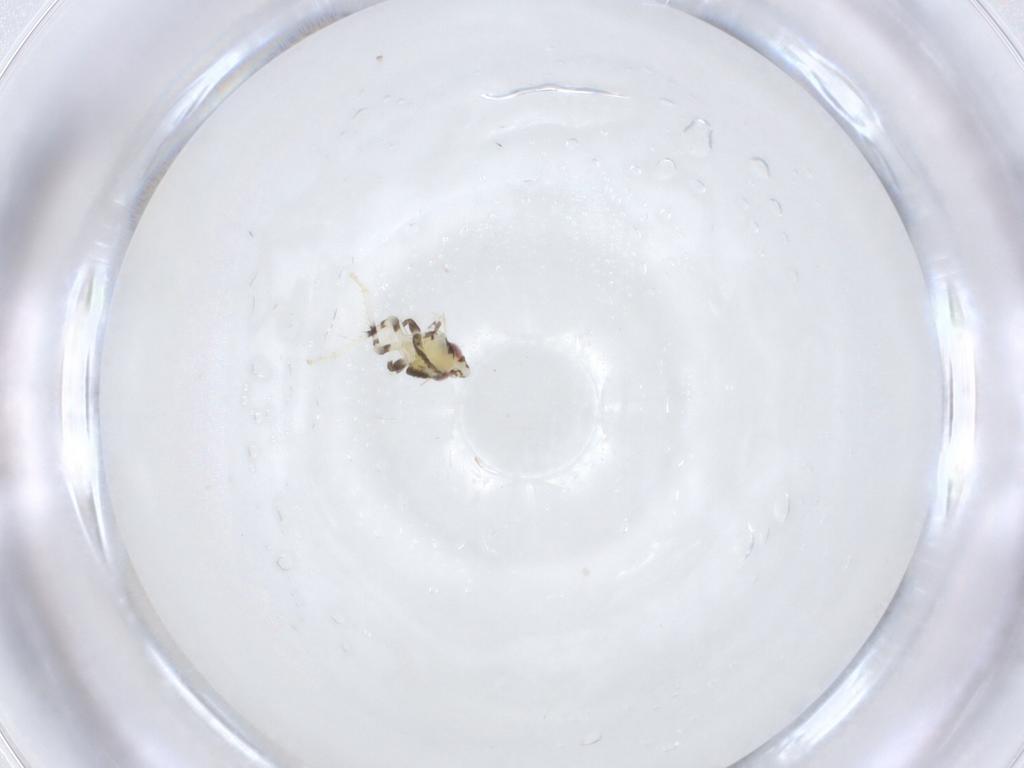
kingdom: Animalia
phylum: Arthropoda
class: Insecta
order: Hemiptera
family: Cicadellidae
